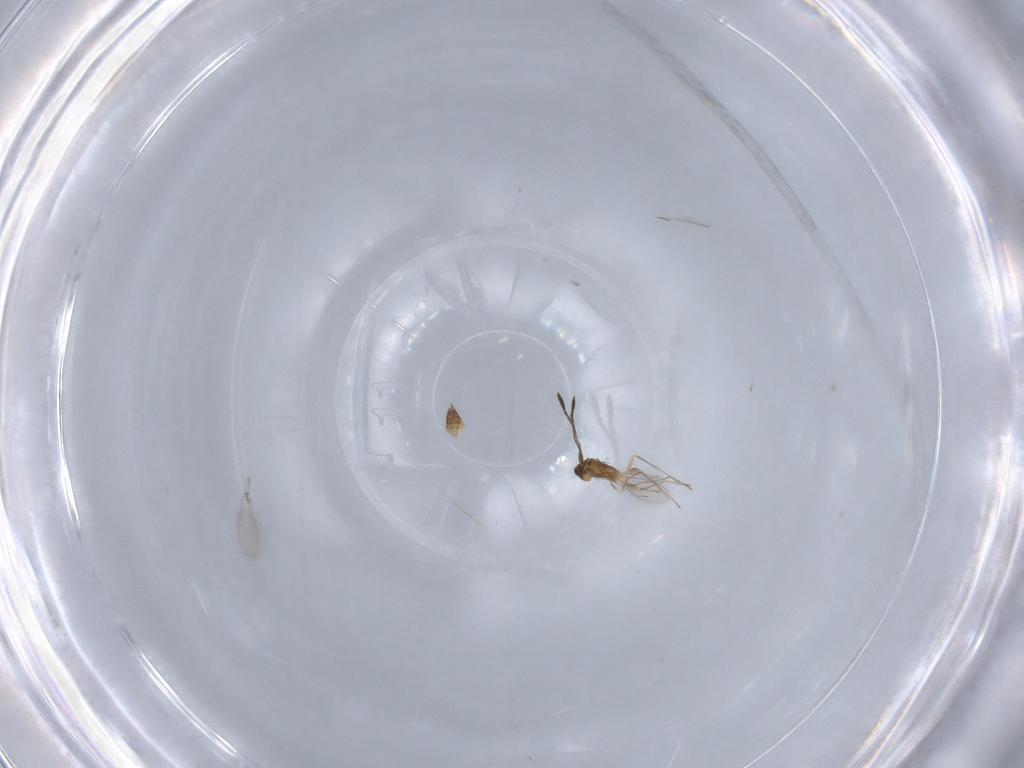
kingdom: Animalia
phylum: Arthropoda
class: Insecta
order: Hymenoptera
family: Mymaridae
